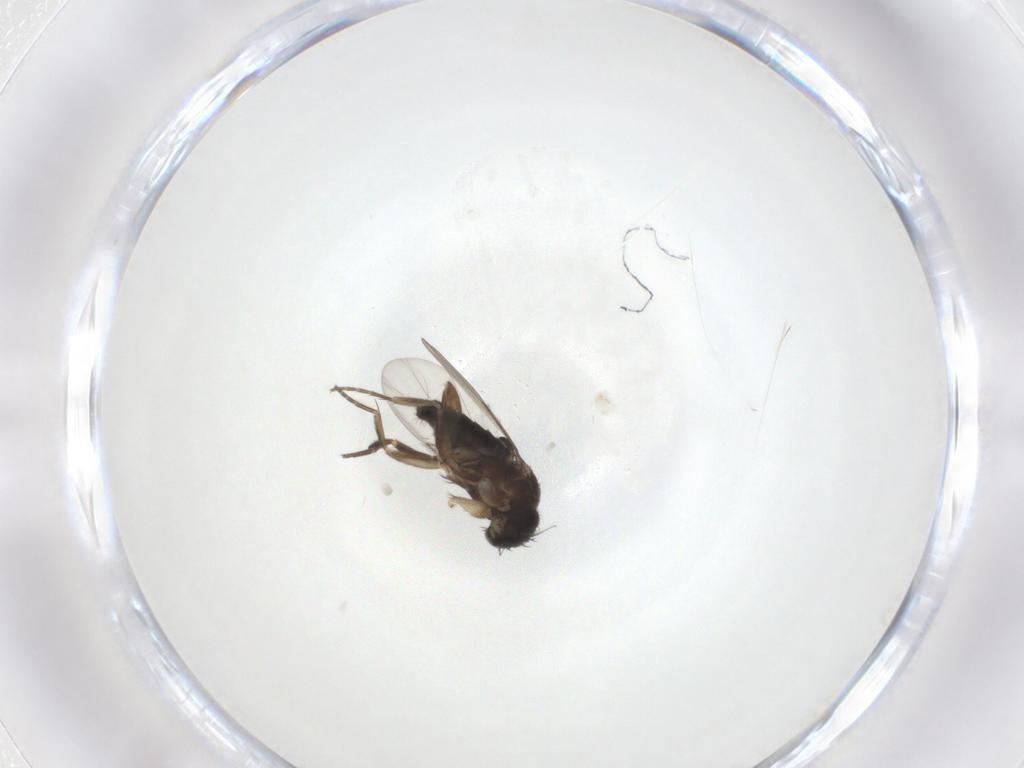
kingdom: Animalia
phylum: Arthropoda
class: Insecta
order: Diptera
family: Phoridae
